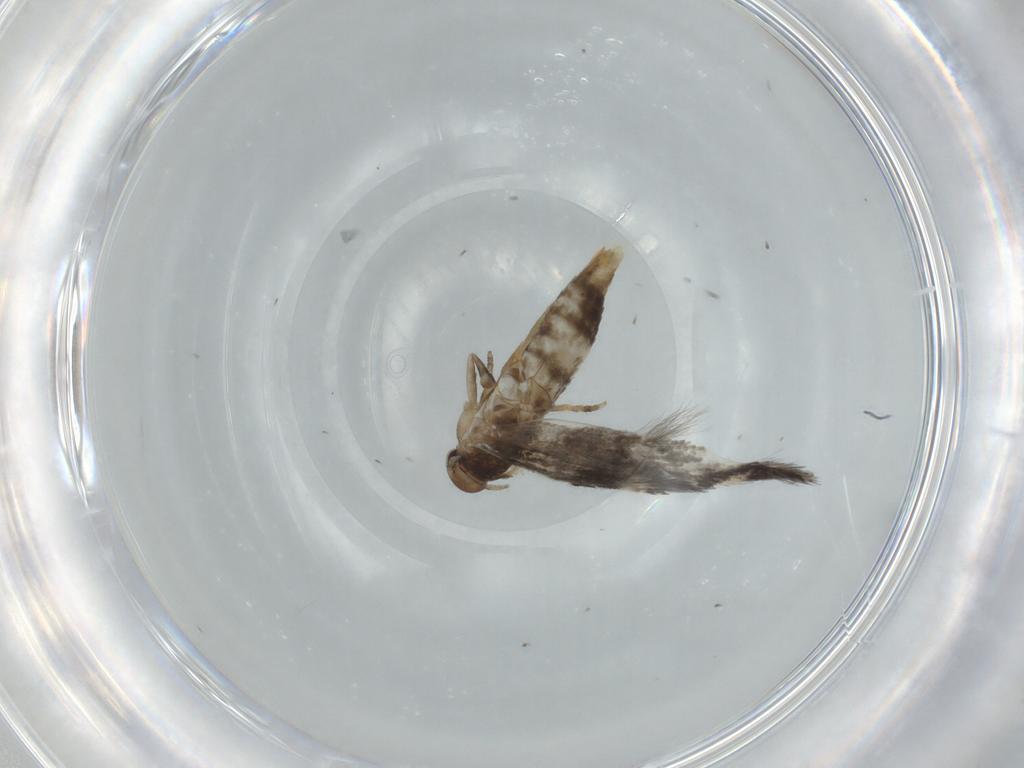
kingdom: Animalia
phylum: Arthropoda
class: Insecta
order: Lepidoptera
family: Elachistidae
